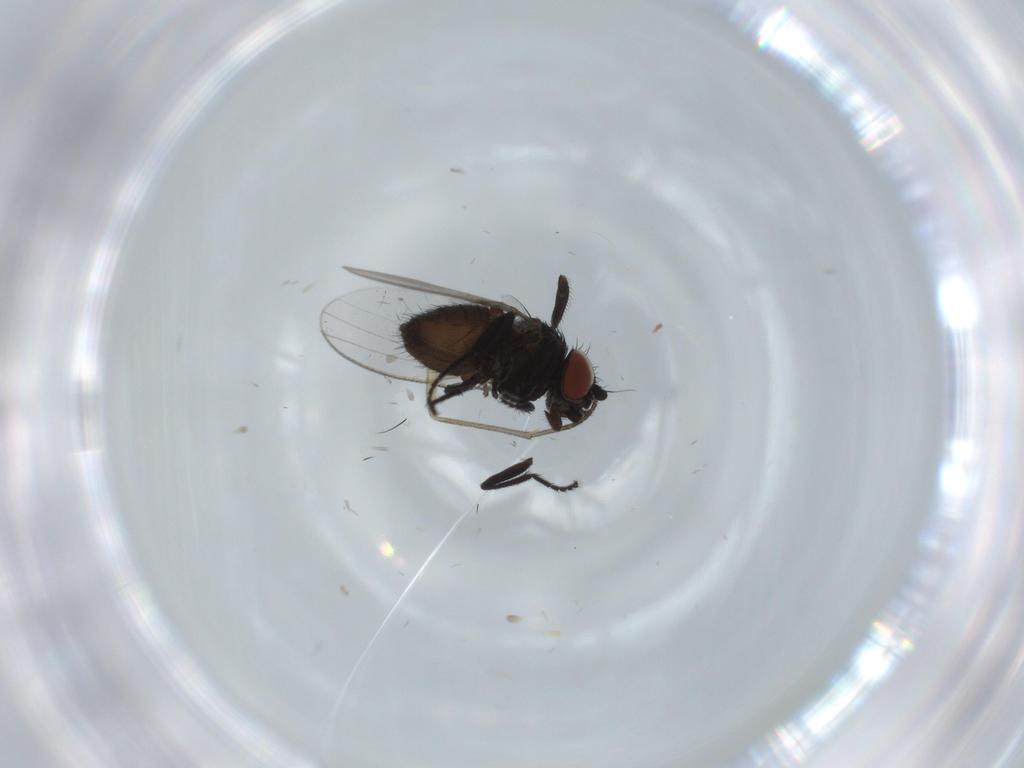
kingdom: Animalia
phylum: Arthropoda
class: Insecta
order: Diptera
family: Milichiidae
